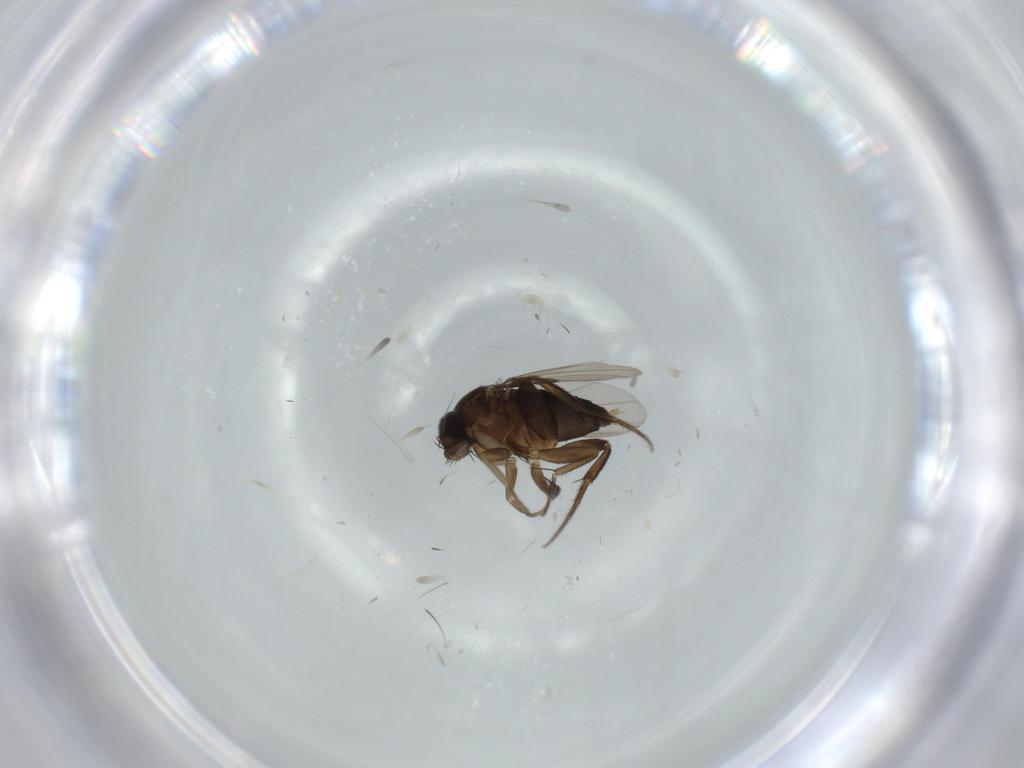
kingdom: Animalia
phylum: Arthropoda
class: Insecta
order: Diptera
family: Phoridae
